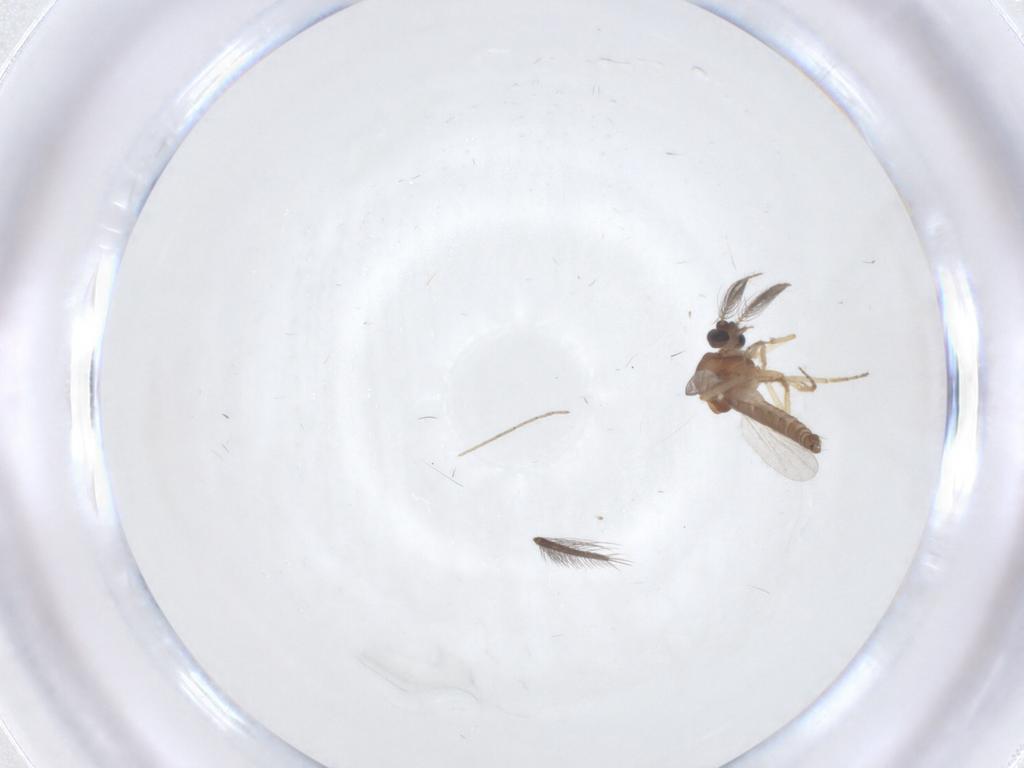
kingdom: Animalia
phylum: Arthropoda
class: Insecta
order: Diptera
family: Ceratopogonidae
